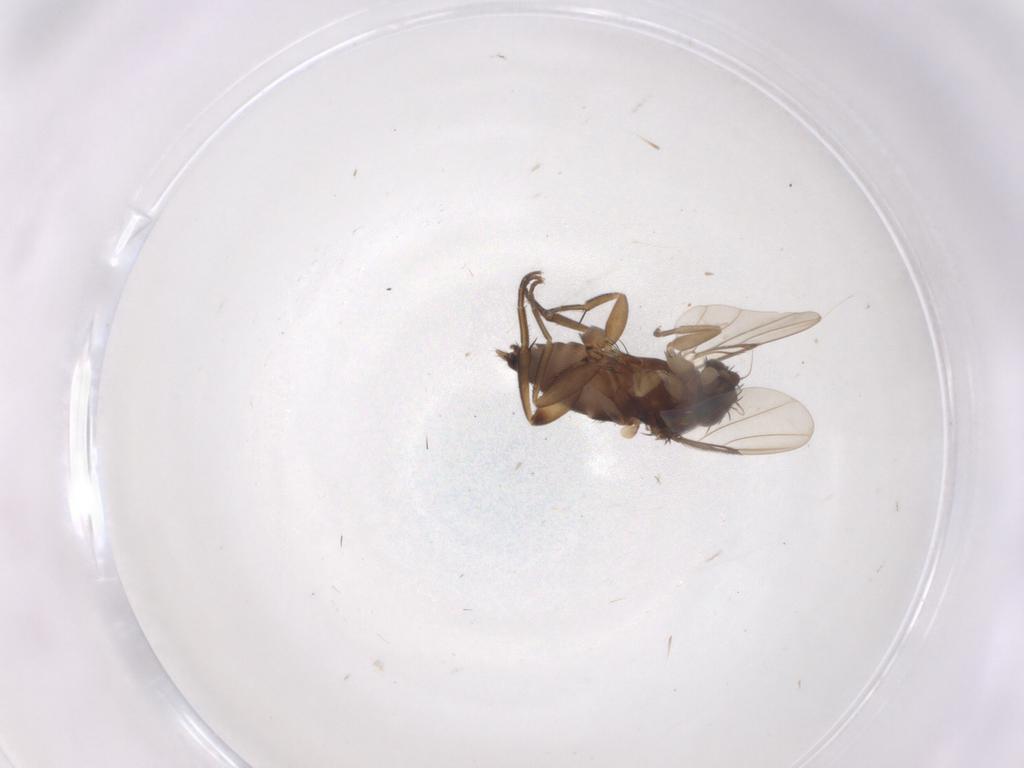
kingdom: Animalia
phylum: Arthropoda
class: Insecta
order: Diptera
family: Phoridae
